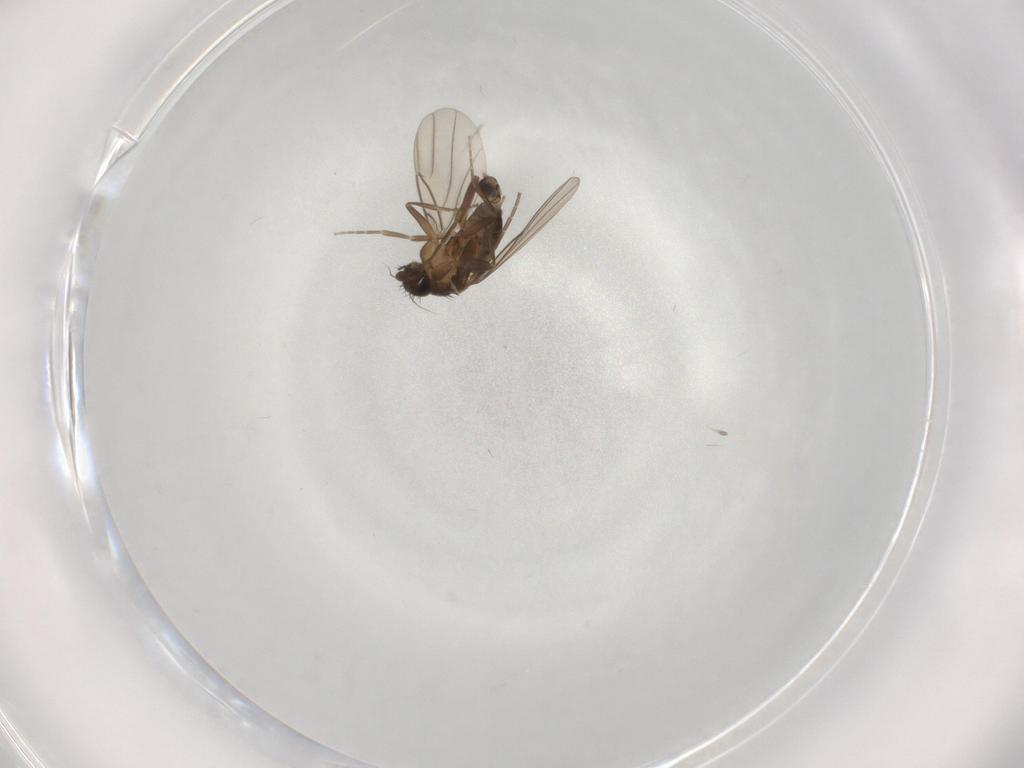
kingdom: Animalia
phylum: Arthropoda
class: Insecta
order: Diptera
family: Phoridae
